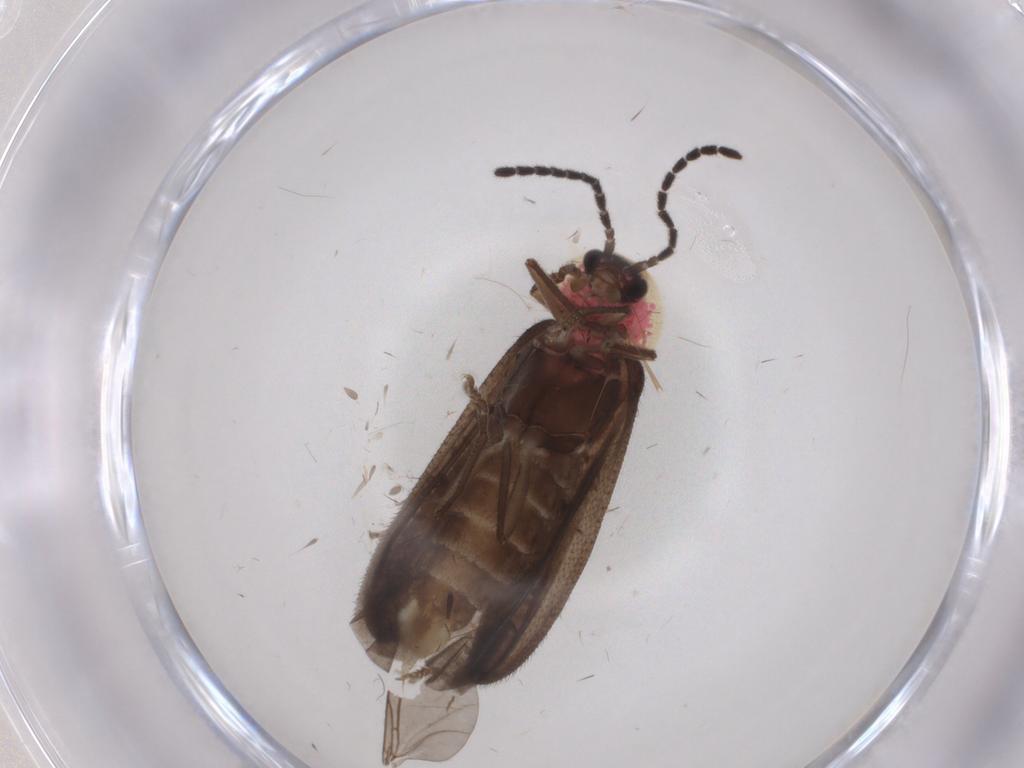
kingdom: Animalia
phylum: Arthropoda
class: Insecta
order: Coleoptera
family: Lampyridae
